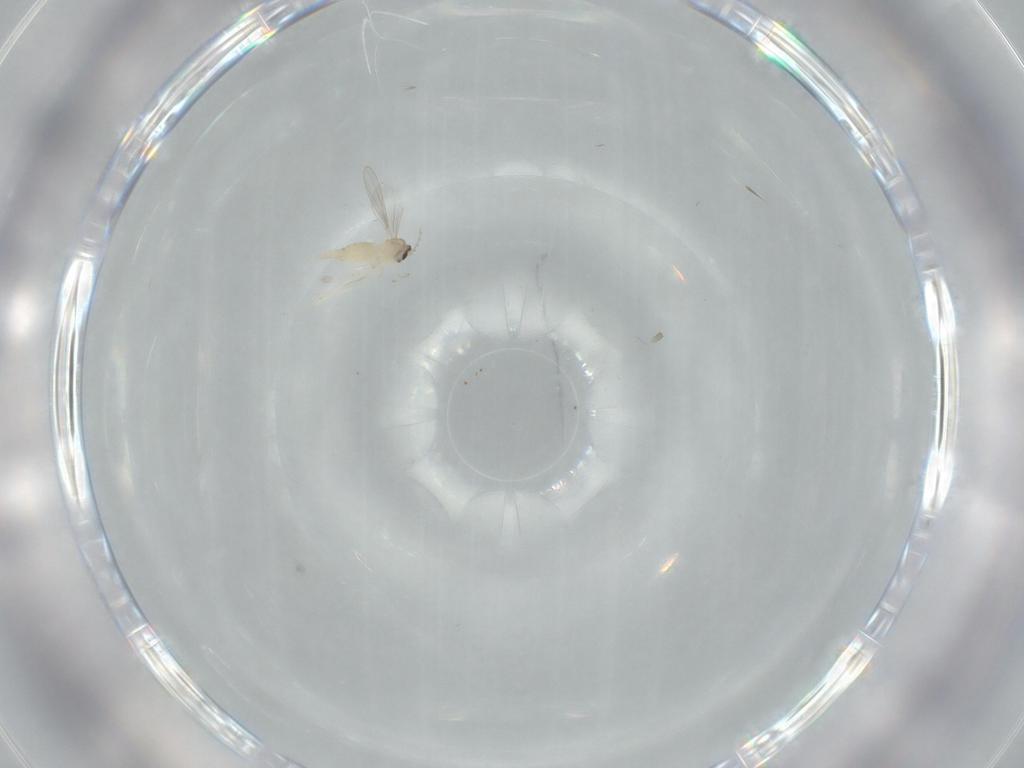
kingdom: Animalia
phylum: Arthropoda
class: Insecta
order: Diptera
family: Cecidomyiidae
